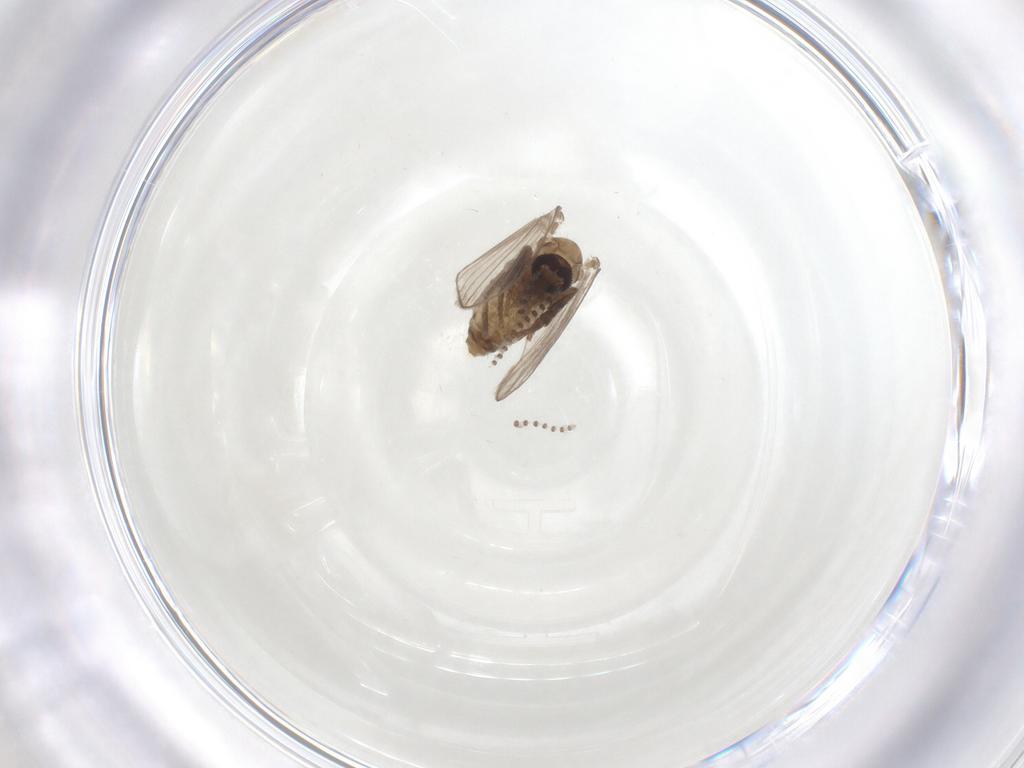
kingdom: Animalia
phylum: Arthropoda
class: Insecta
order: Diptera
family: Psychodidae
